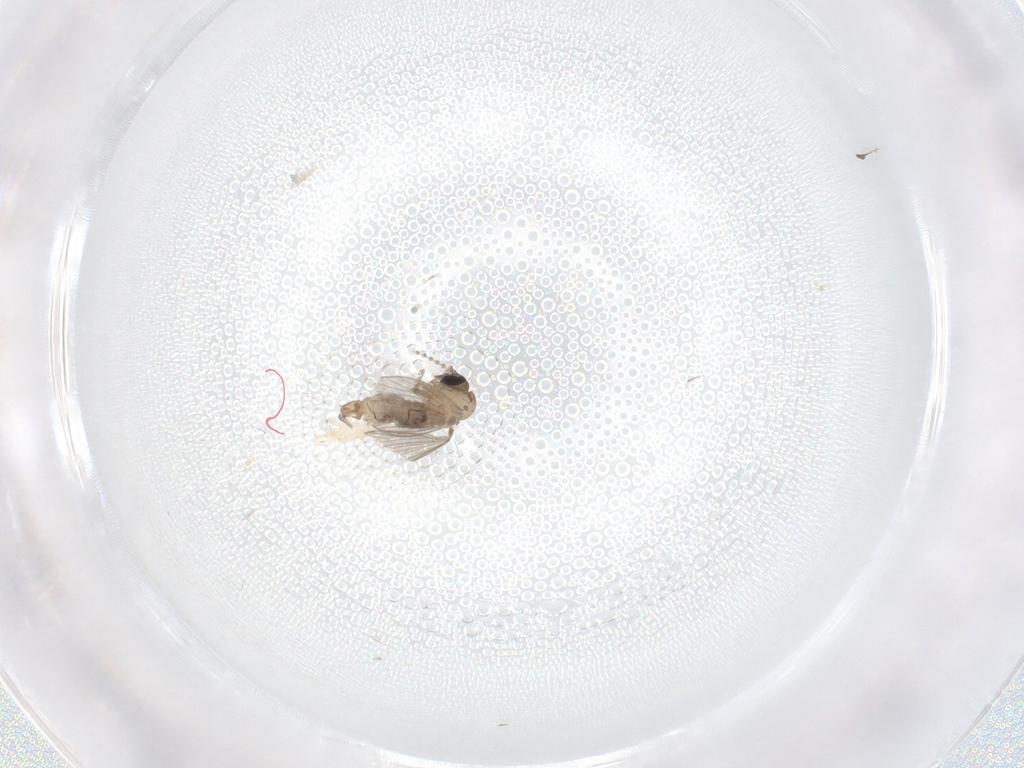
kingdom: Animalia
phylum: Arthropoda
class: Insecta
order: Diptera
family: Psychodidae
